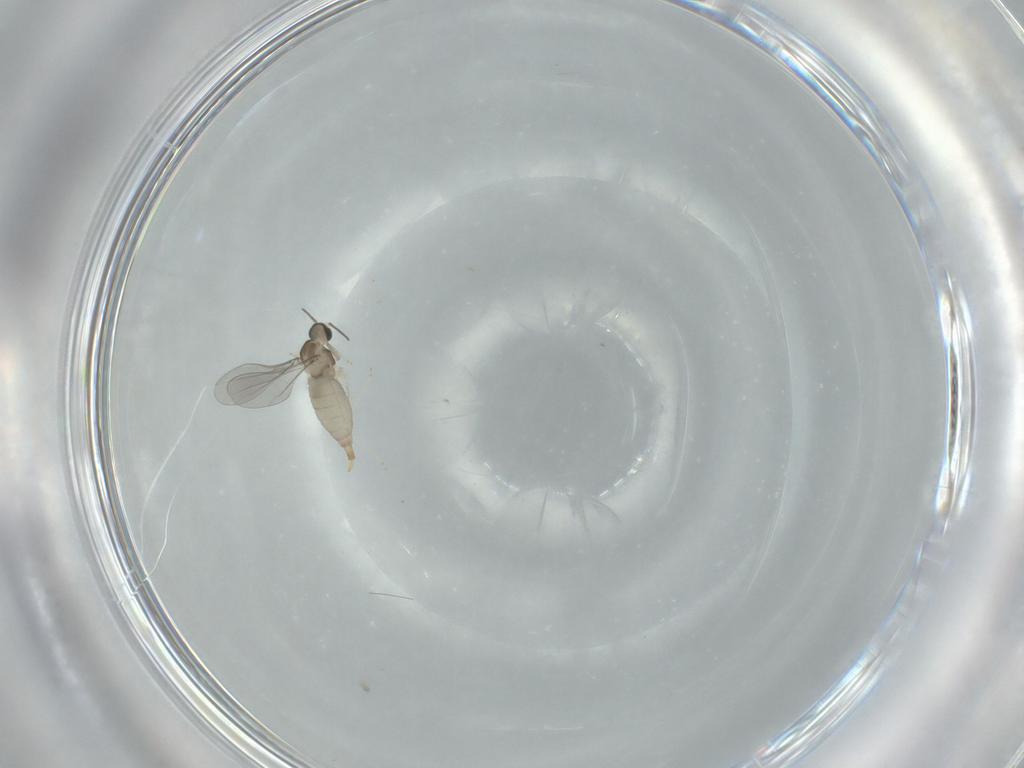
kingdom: Animalia
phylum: Arthropoda
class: Insecta
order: Diptera
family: Cecidomyiidae
